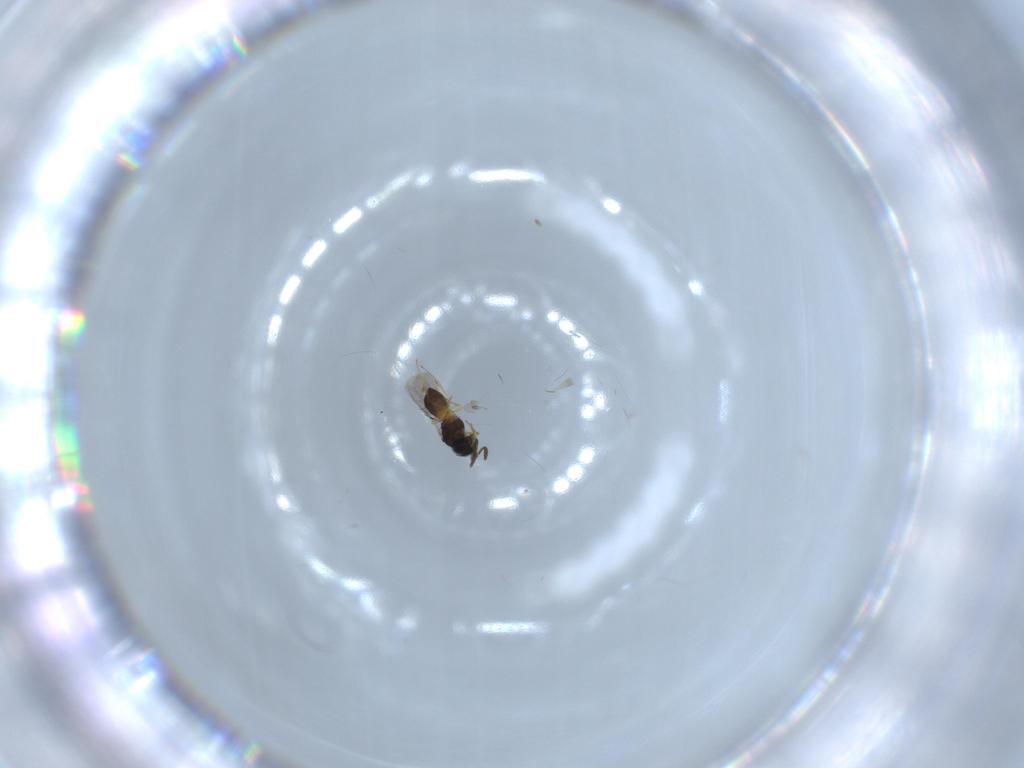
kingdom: Animalia
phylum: Arthropoda
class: Insecta
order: Hymenoptera
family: Scelionidae
